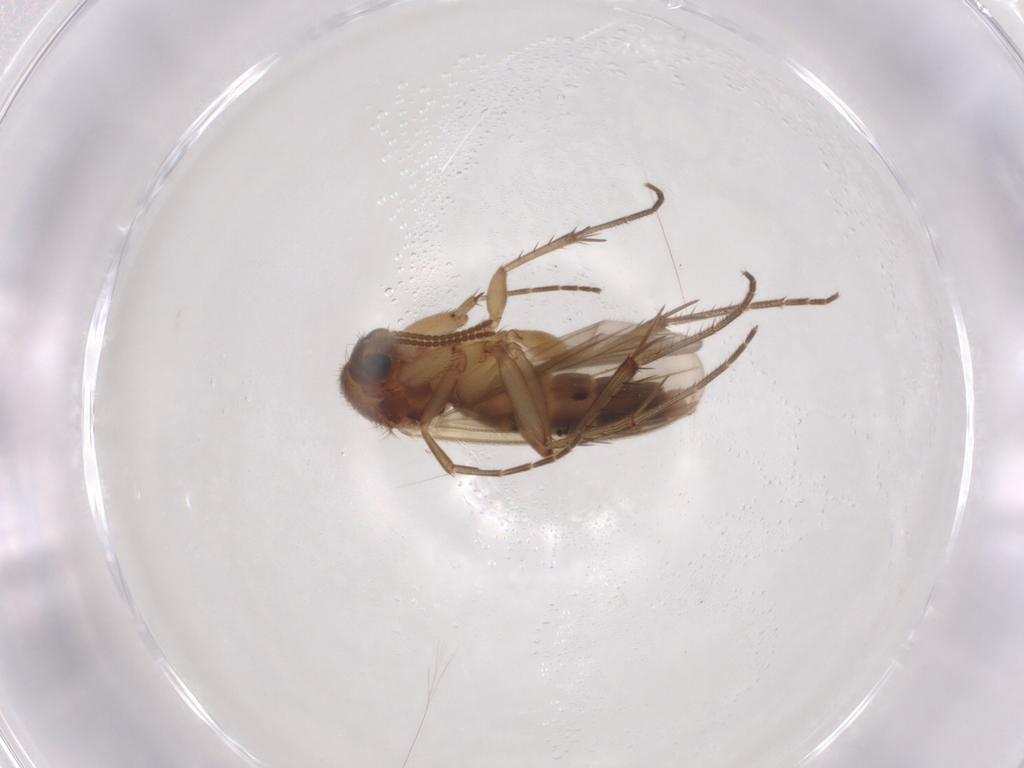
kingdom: Animalia
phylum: Arthropoda
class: Insecta
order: Diptera
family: Mycetophilidae
